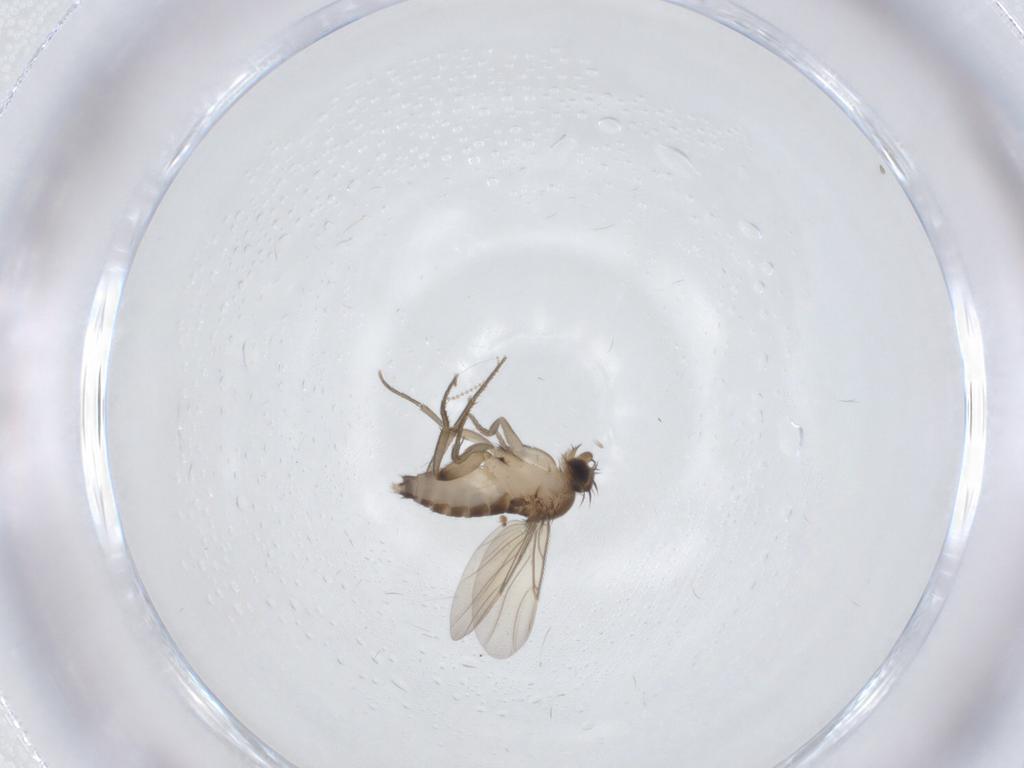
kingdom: Animalia
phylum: Arthropoda
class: Insecta
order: Diptera
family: Phoridae
